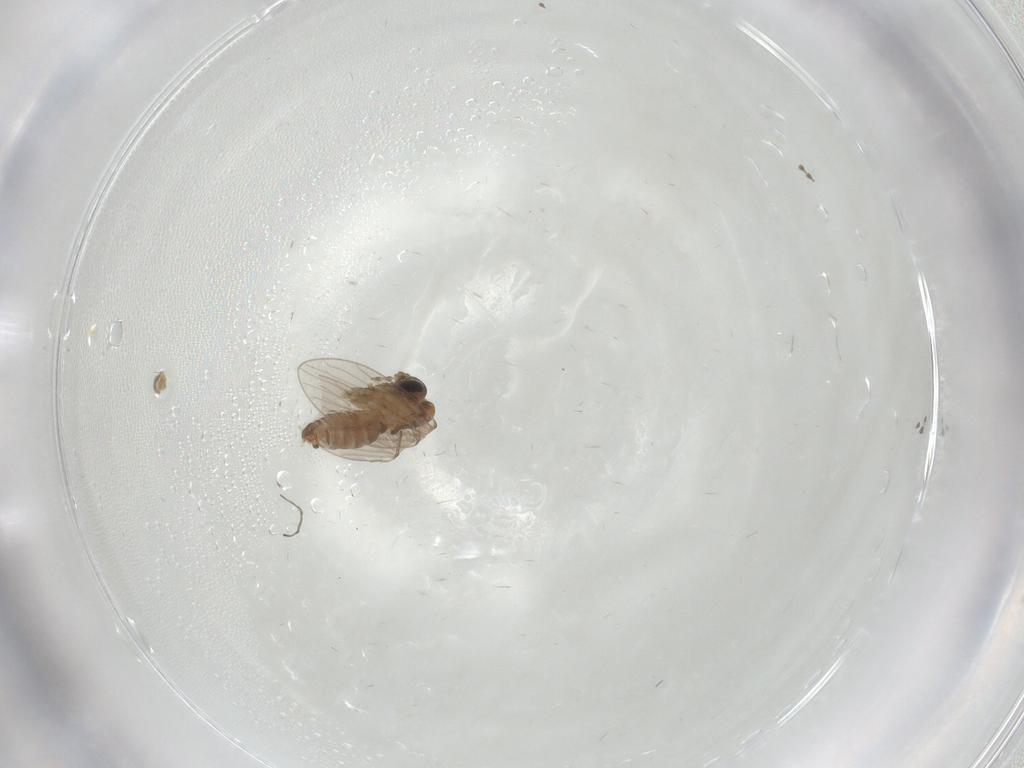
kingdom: Animalia
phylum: Arthropoda
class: Insecta
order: Diptera
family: Psychodidae
